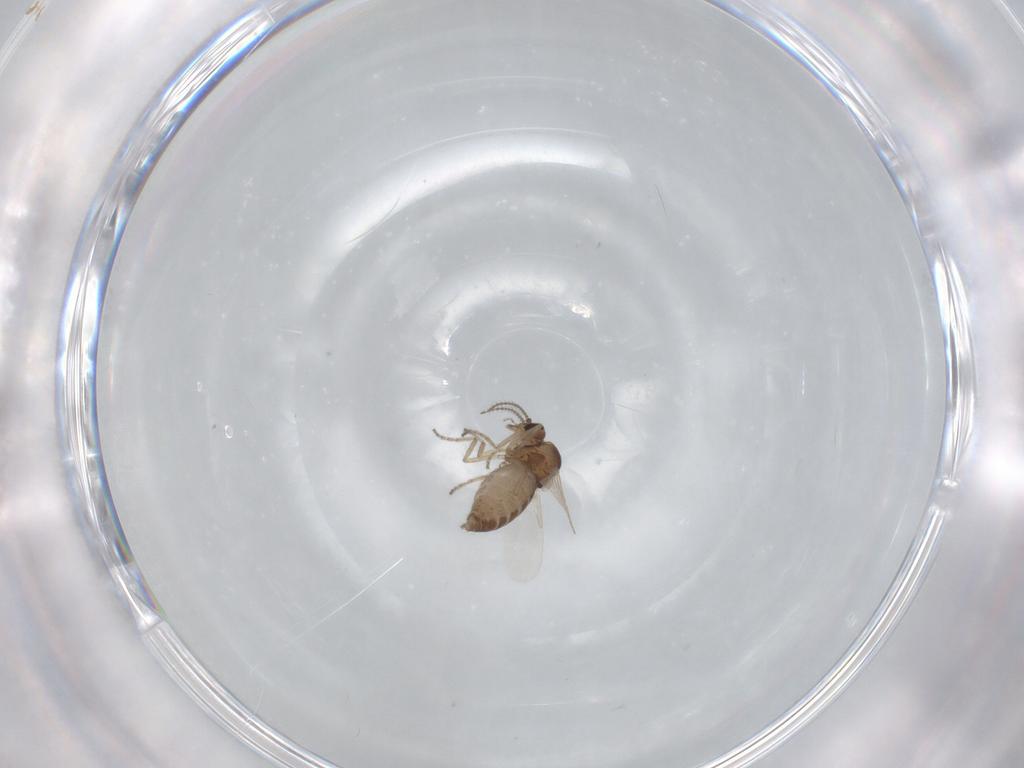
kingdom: Animalia
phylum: Arthropoda
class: Insecta
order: Diptera
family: Ceratopogonidae
